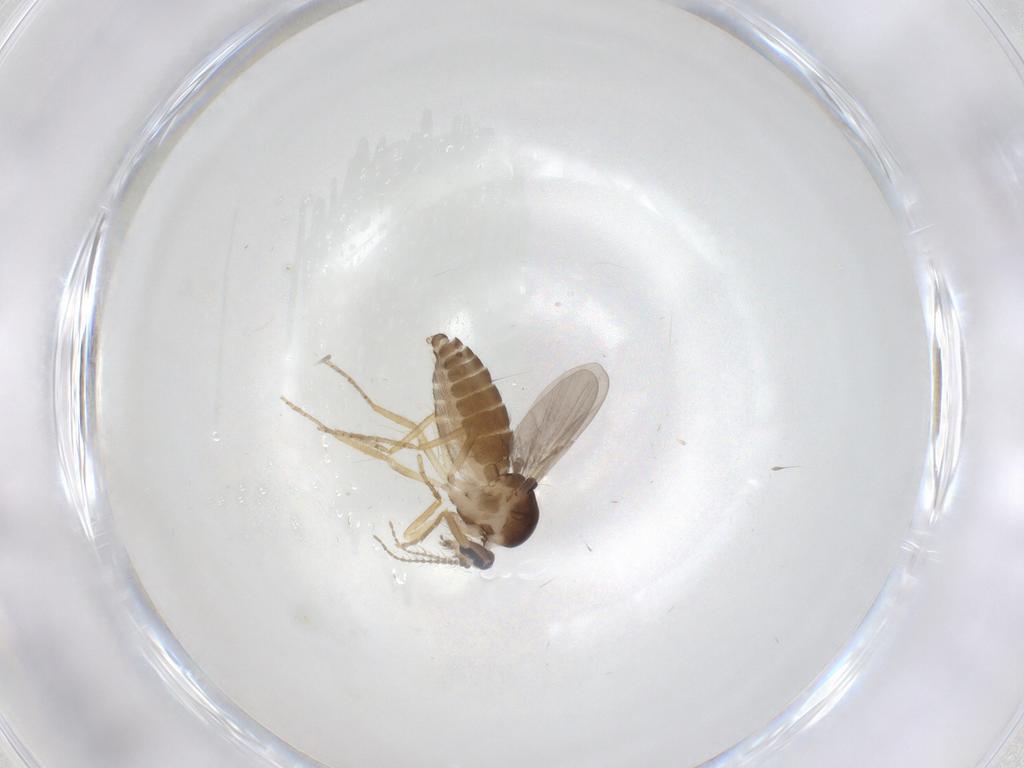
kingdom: Animalia
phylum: Arthropoda
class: Insecta
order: Diptera
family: Ceratopogonidae
